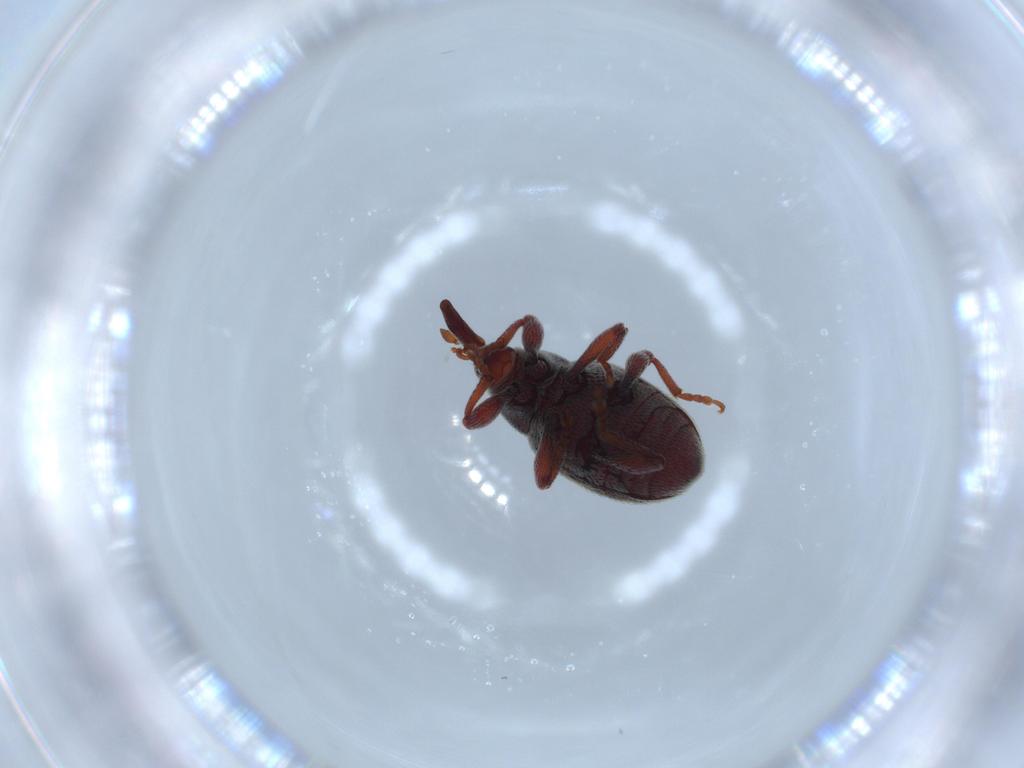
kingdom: Animalia
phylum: Arthropoda
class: Insecta
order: Coleoptera
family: Curculionidae
